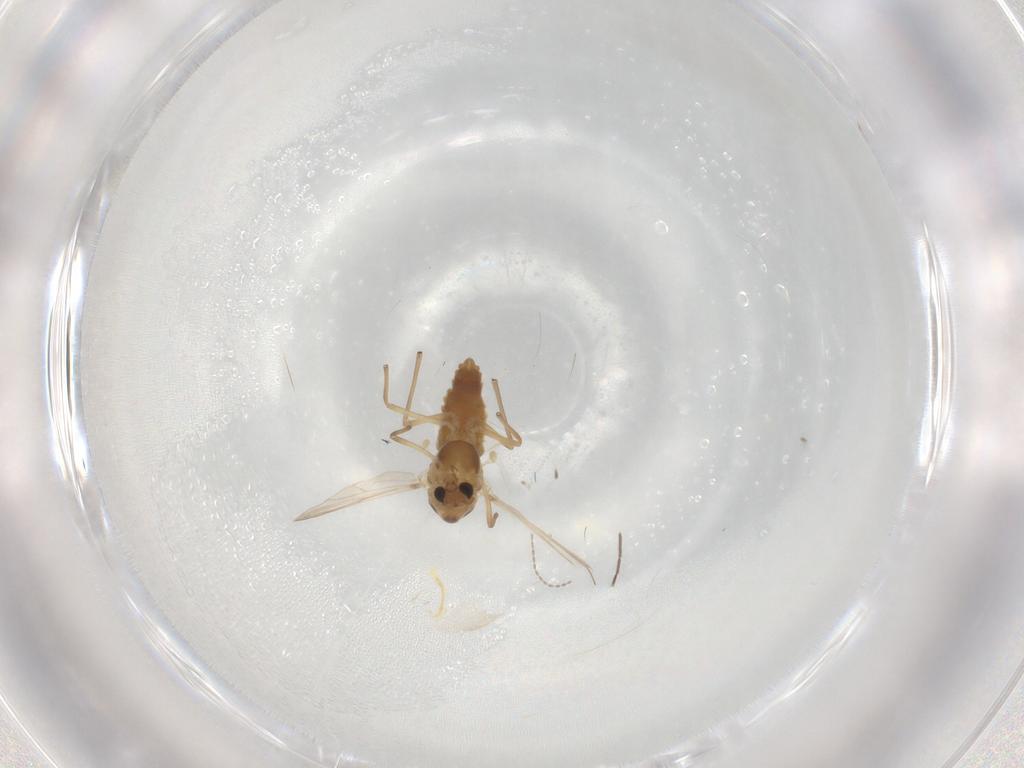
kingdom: Animalia
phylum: Arthropoda
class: Insecta
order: Diptera
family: Chironomidae
